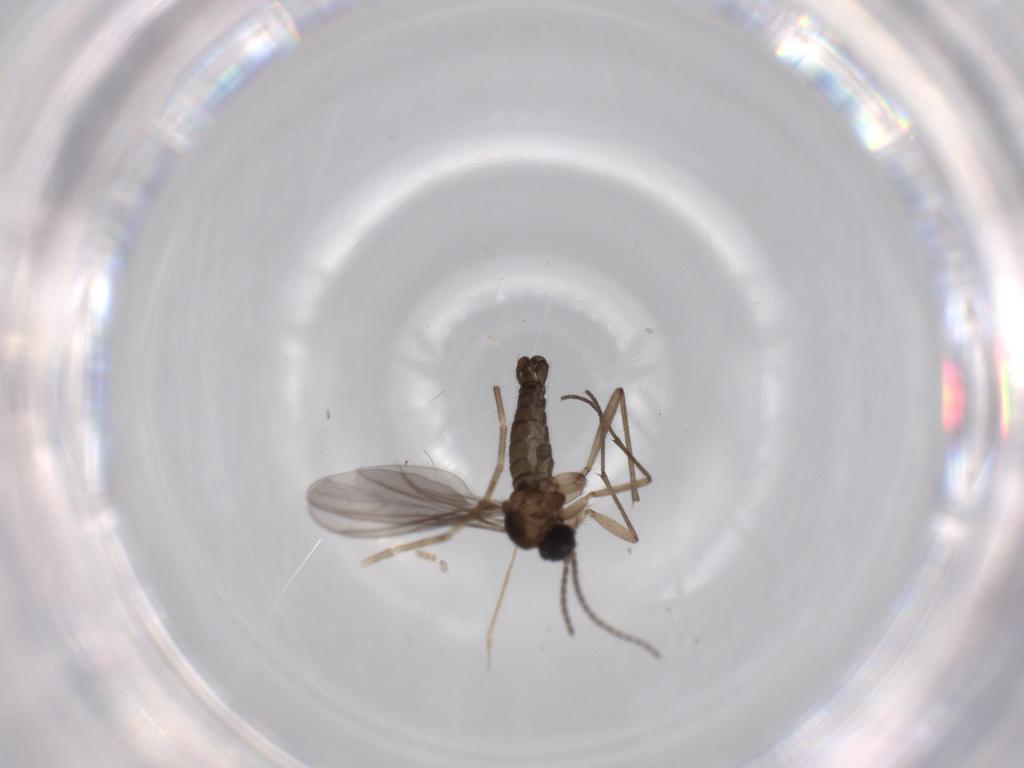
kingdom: Animalia
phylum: Arthropoda
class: Insecta
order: Diptera
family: Sciaridae
